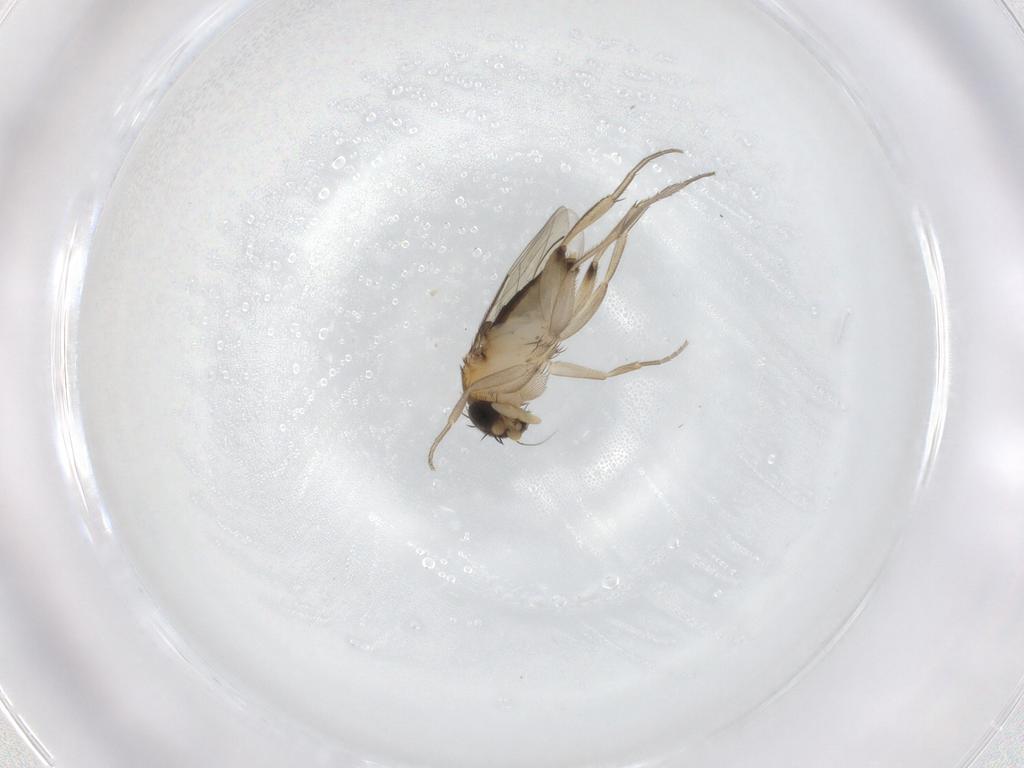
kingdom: Animalia
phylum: Arthropoda
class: Insecta
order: Diptera
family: Phoridae
